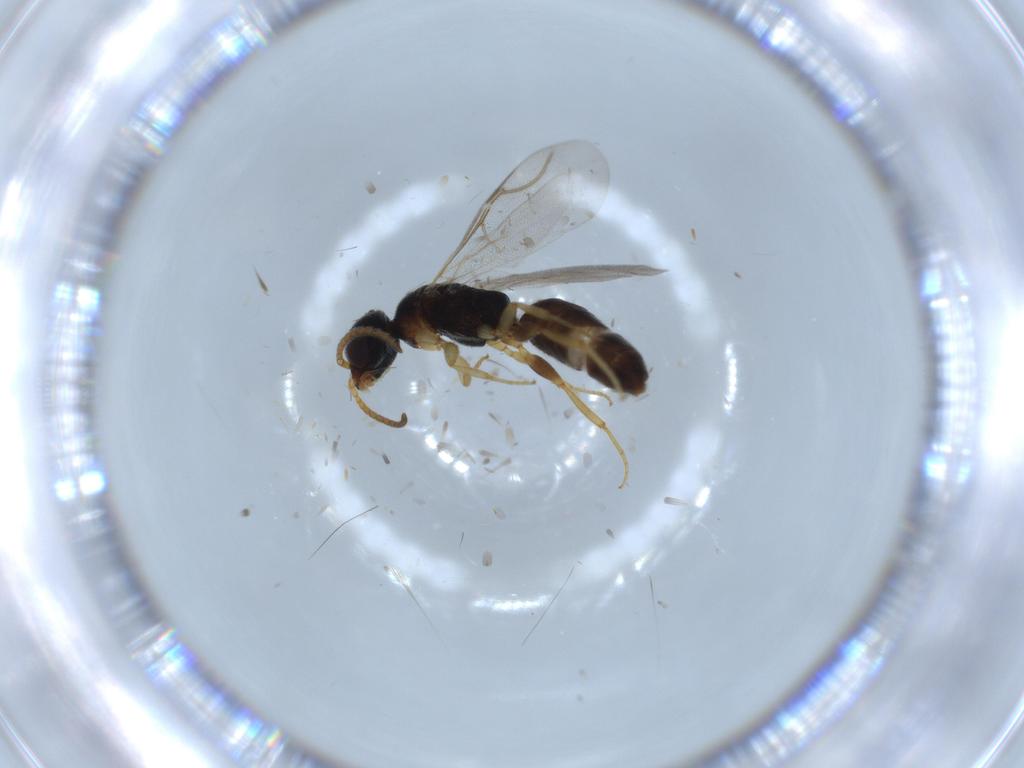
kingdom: Animalia
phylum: Arthropoda
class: Insecta
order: Hymenoptera
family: Bethylidae
